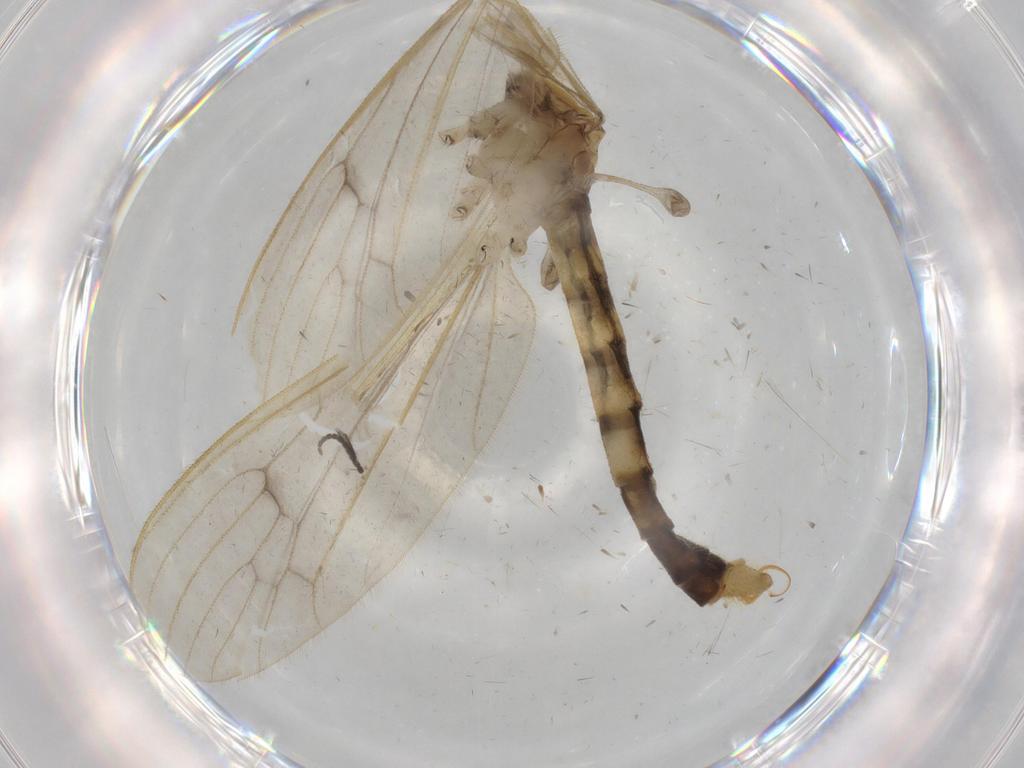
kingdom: Animalia
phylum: Arthropoda
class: Insecta
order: Diptera
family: Limoniidae
